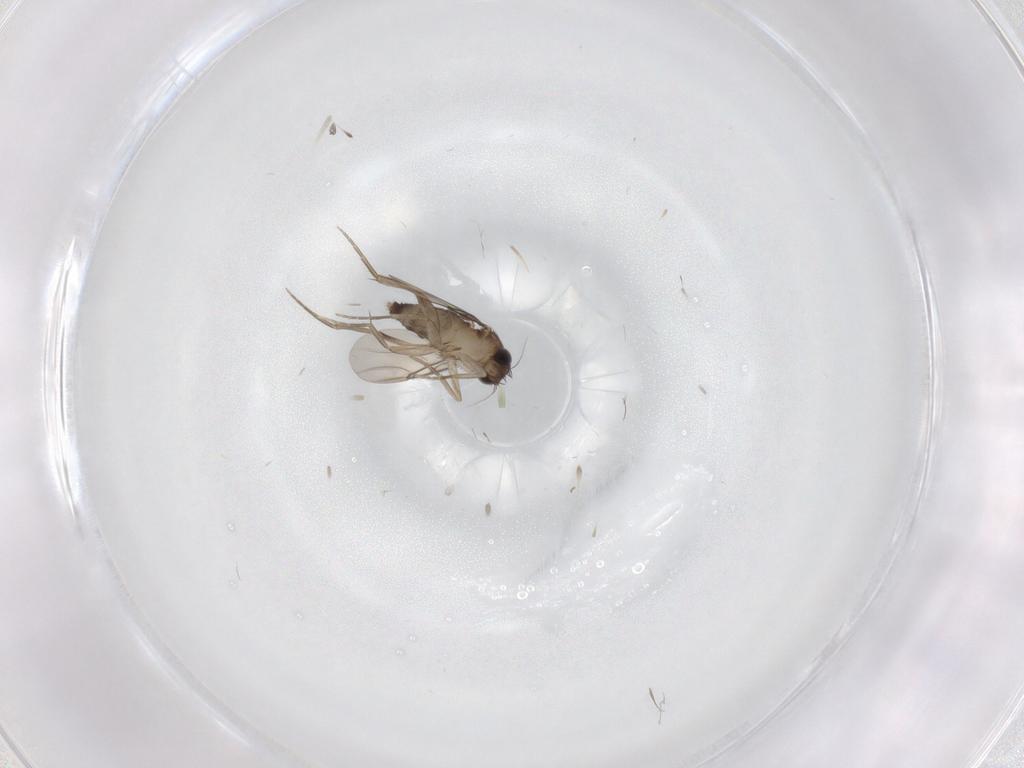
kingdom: Animalia
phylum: Arthropoda
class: Insecta
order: Diptera
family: Phoridae
